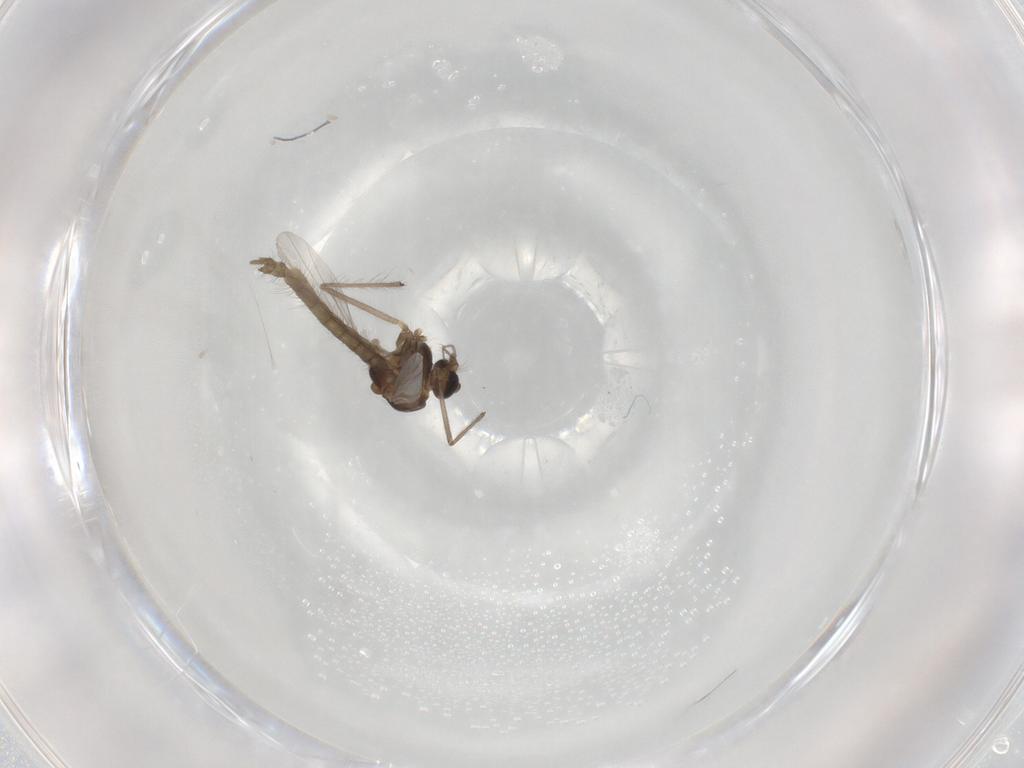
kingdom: Animalia
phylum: Arthropoda
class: Insecta
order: Diptera
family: Chironomidae
